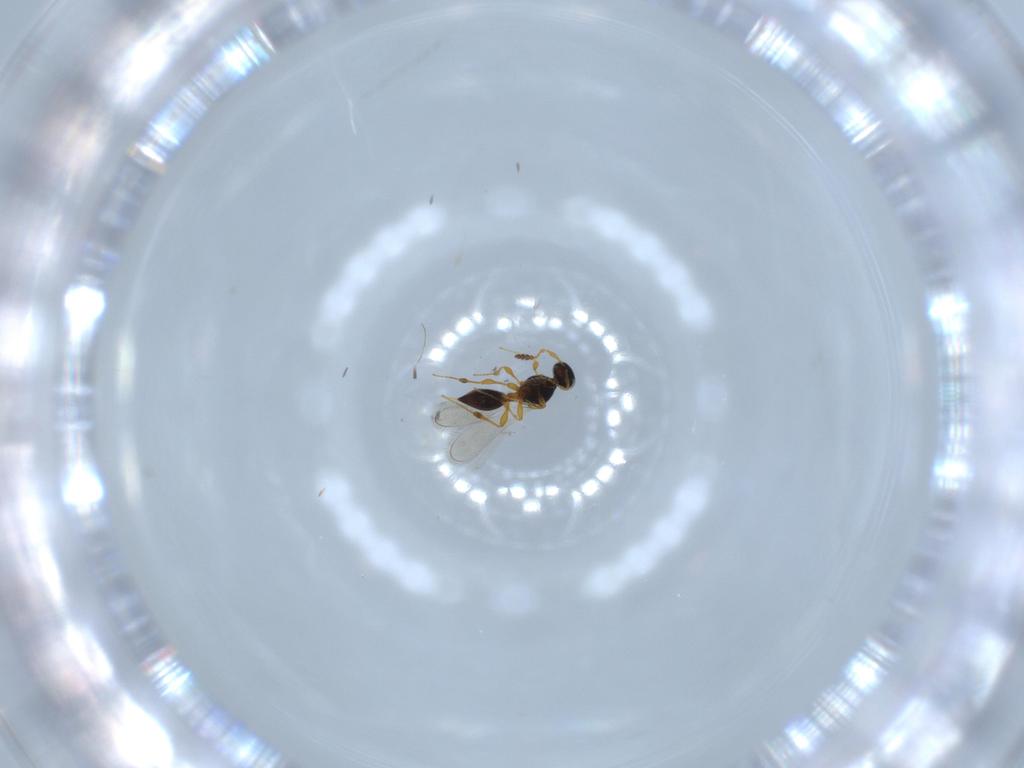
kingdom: Animalia
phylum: Arthropoda
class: Insecta
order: Hymenoptera
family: Platygastridae
